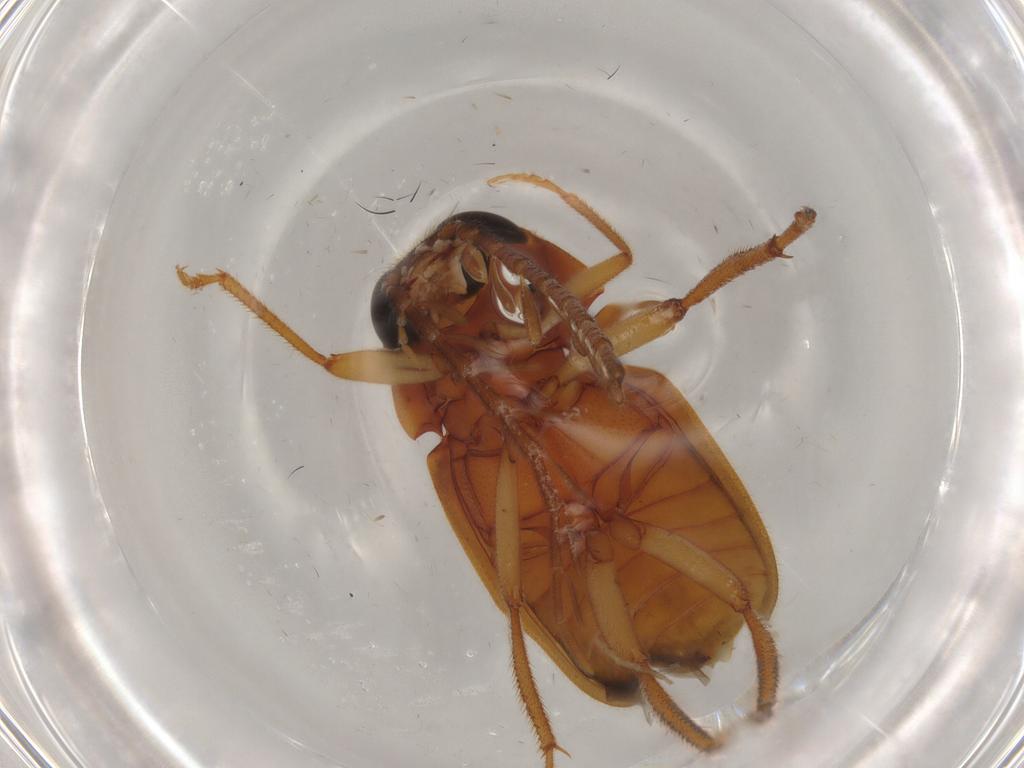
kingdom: Animalia
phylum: Arthropoda
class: Insecta
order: Coleoptera
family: Ptilodactylidae
